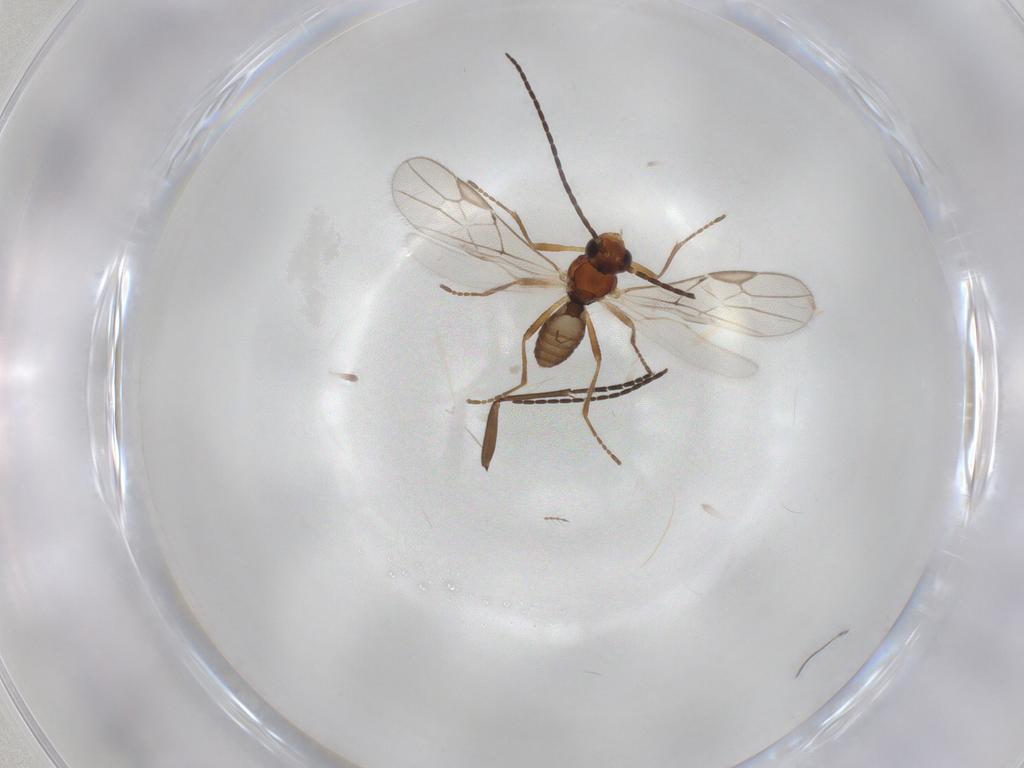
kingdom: Animalia
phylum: Arthropoda
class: Insecta
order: Hymenoptera
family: Braconidae
